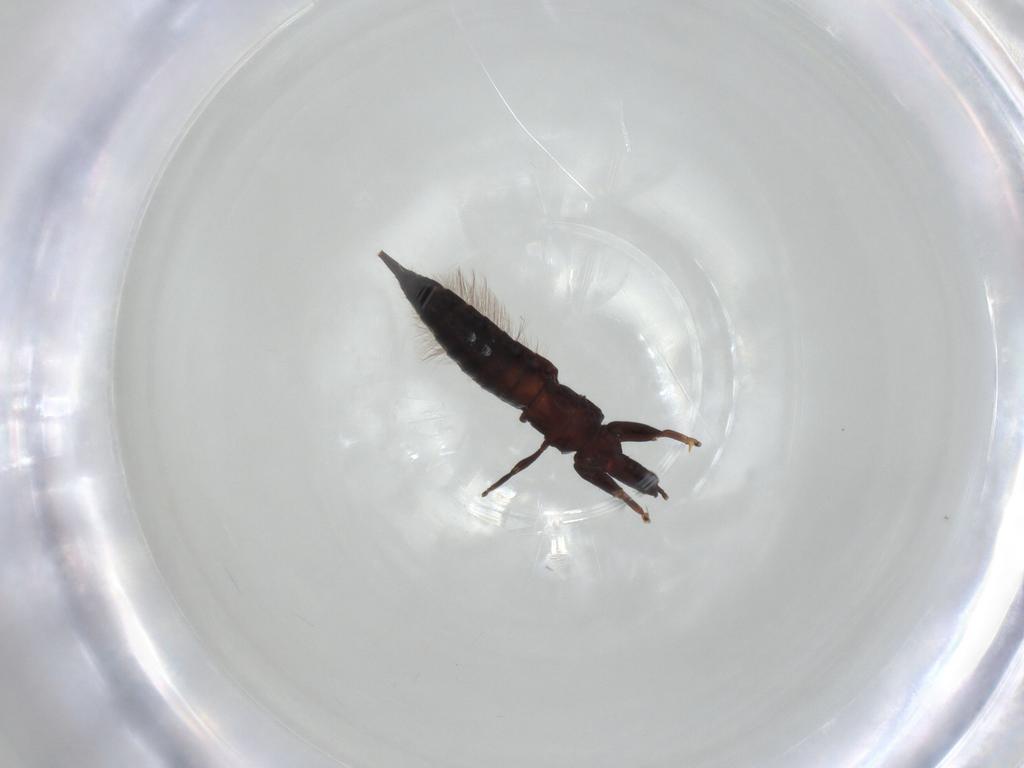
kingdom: Animalia
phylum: Arthropoda
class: Insecta
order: Thysanoptera
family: Phlaeothripidae
